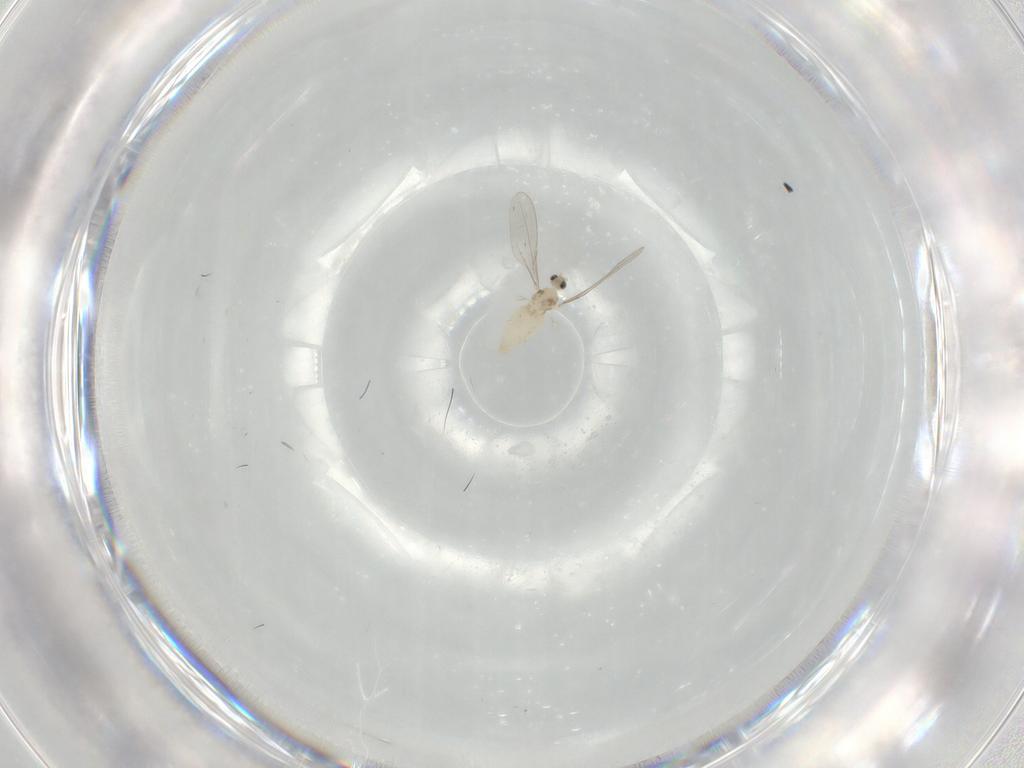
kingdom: Animalia
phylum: Arthropoda
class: Insecta
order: Diptera
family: Cecidomyiidae
